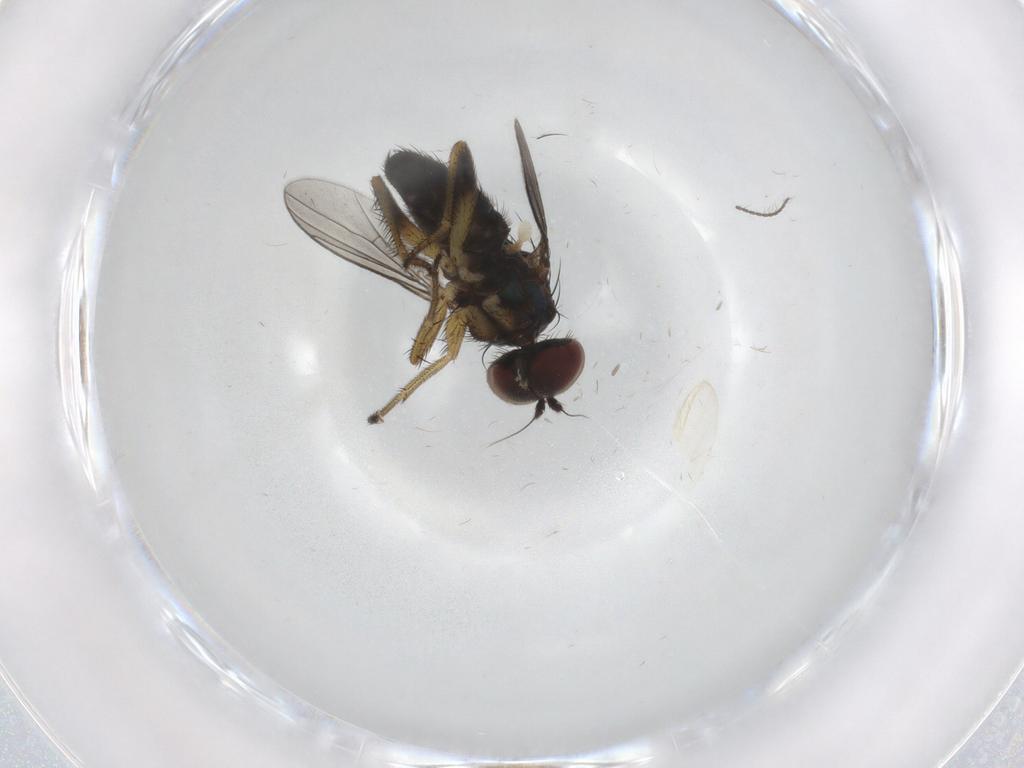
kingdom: Animalia
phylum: Arthropoda
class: Insecta
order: Diptera
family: Dolichopodidae
